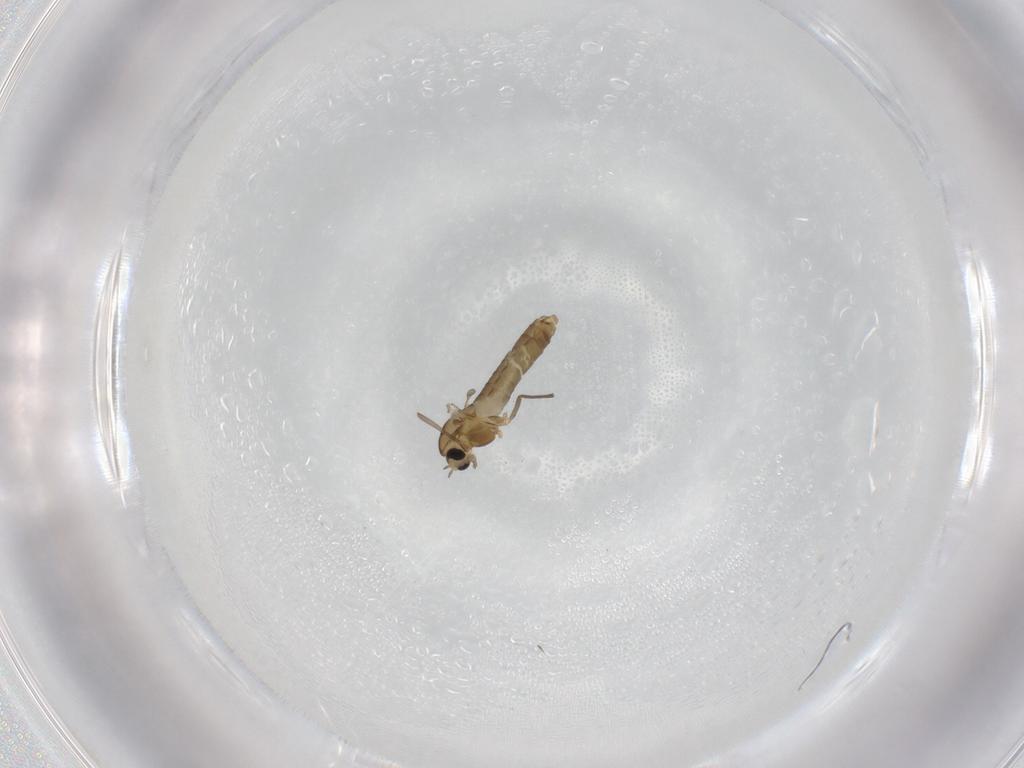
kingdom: Animalia
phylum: Arthropoda
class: Insecta
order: Diptera
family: Chironomidae
